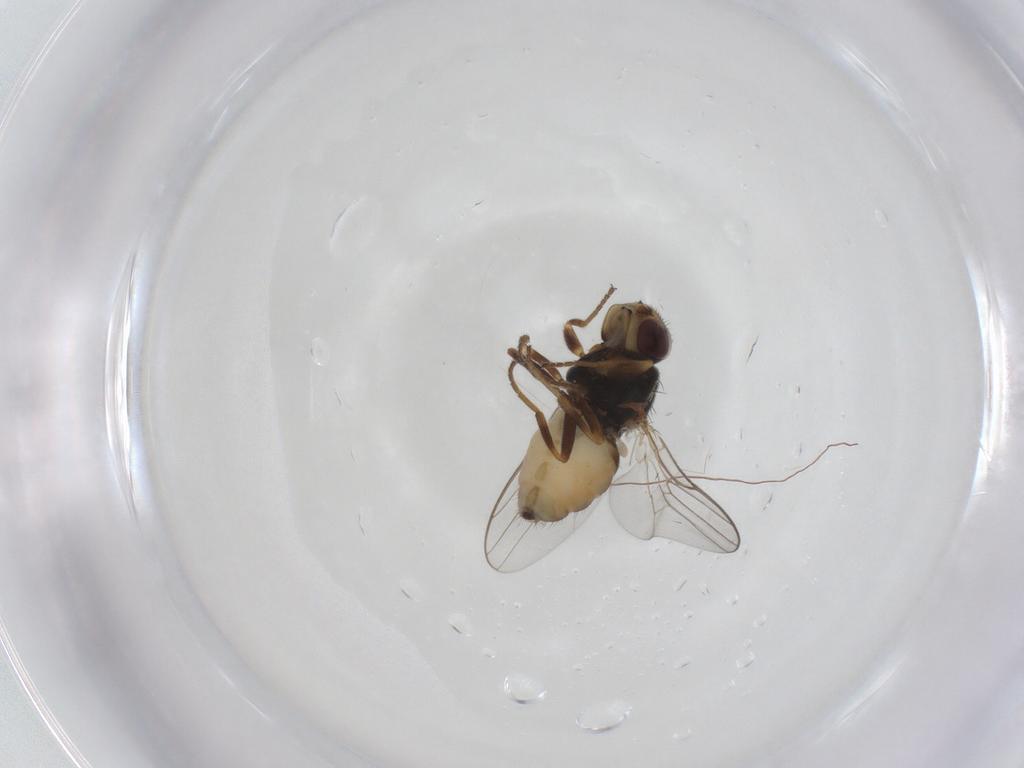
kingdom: Animalia
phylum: Arthropoda
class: Insecta
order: Diptera
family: Chloropidae
